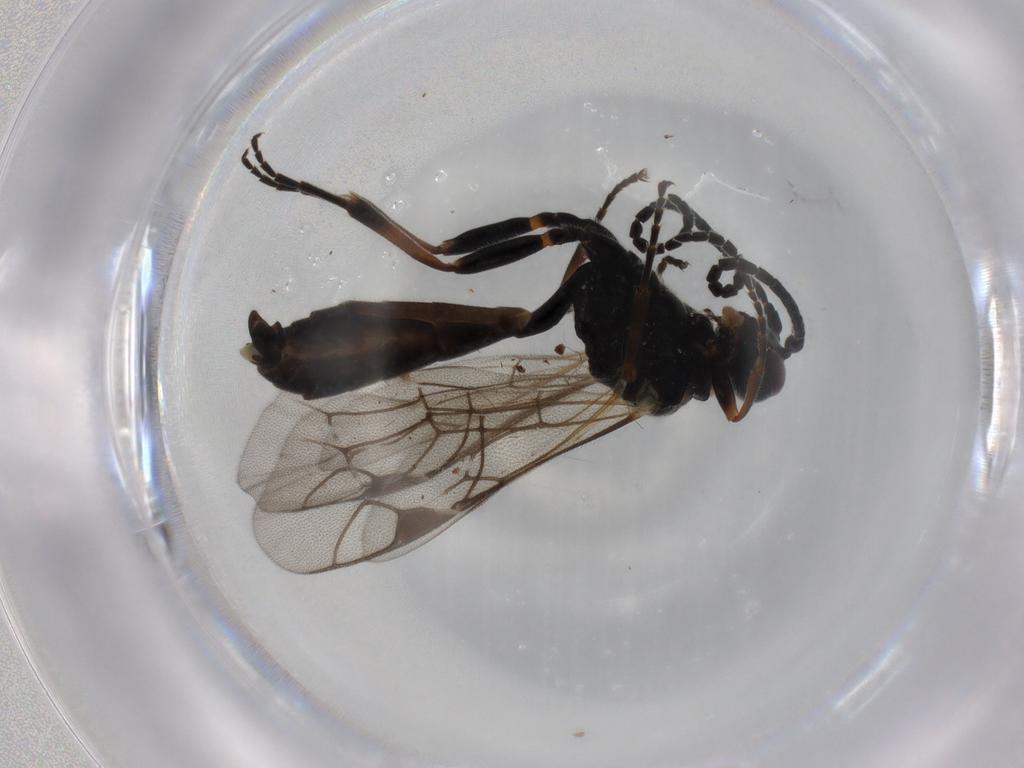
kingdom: Animalia
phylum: Arthropoda
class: Insecta
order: Hymenoptera
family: Ichneumonidae
